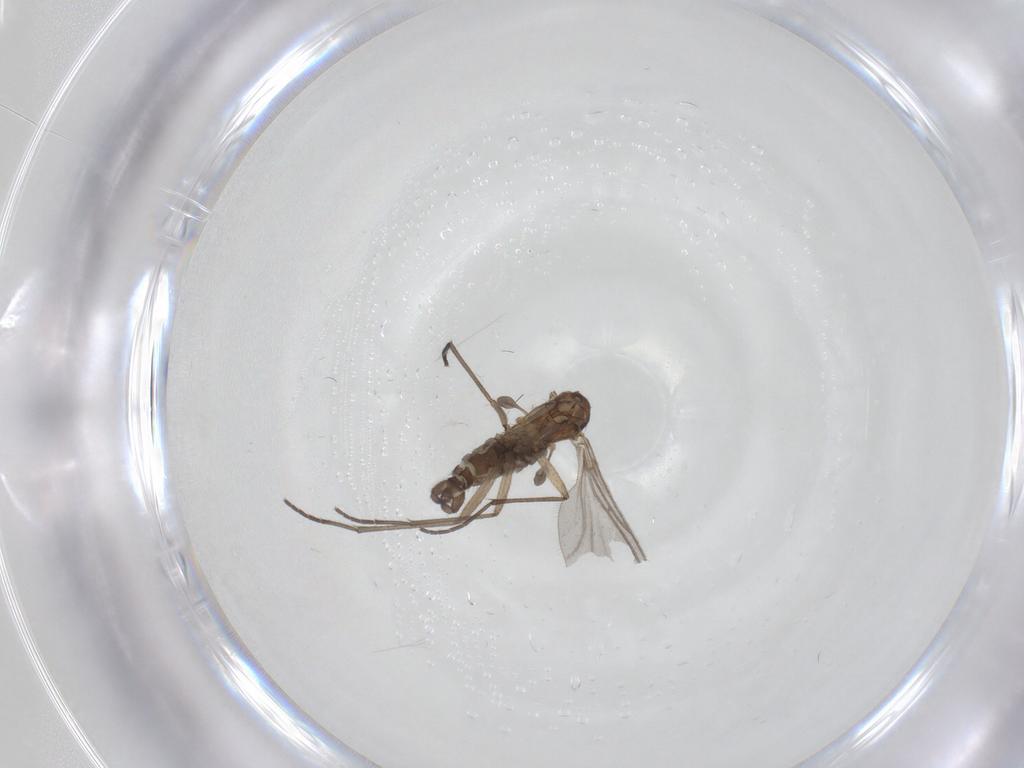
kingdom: Animalia
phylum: Arthropoda
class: Insecta
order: Diptera
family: Sciaridae
